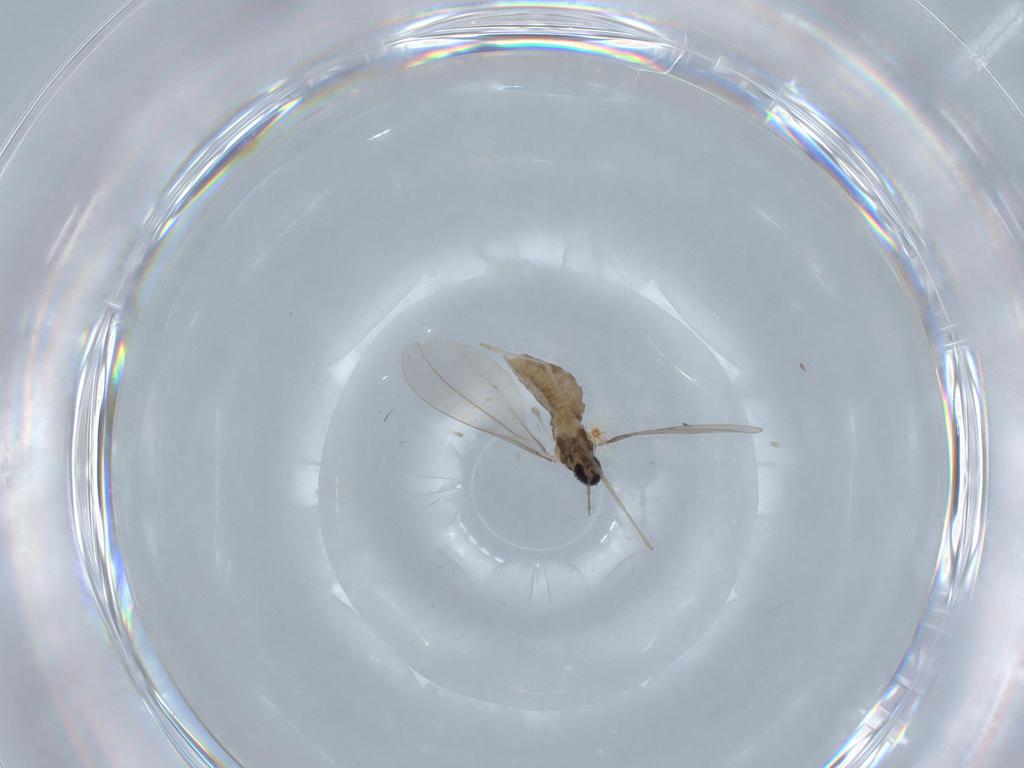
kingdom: Animalia
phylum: Arthropoda
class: Insecta
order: Diptera
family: Cecidomyiidae
